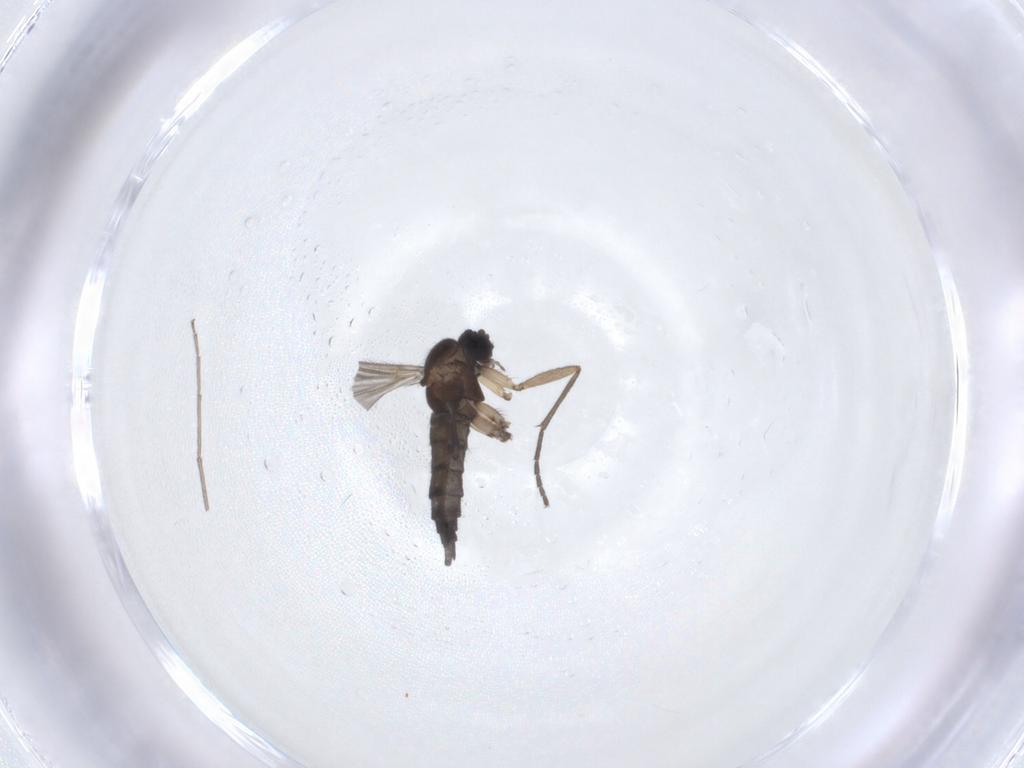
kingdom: Animalia
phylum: Arthropoda
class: Insecta
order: Diptera
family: Sciaridae
